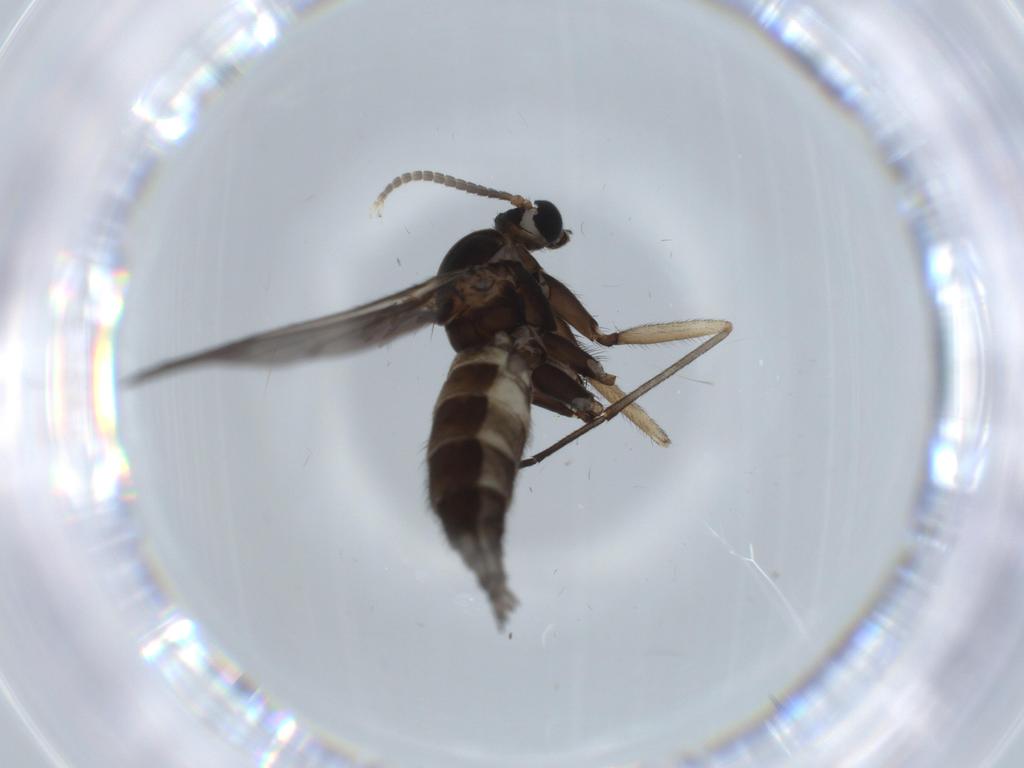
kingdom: Animalia
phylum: Arthropoda
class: Insecta
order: Diptera
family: Sciaridae
